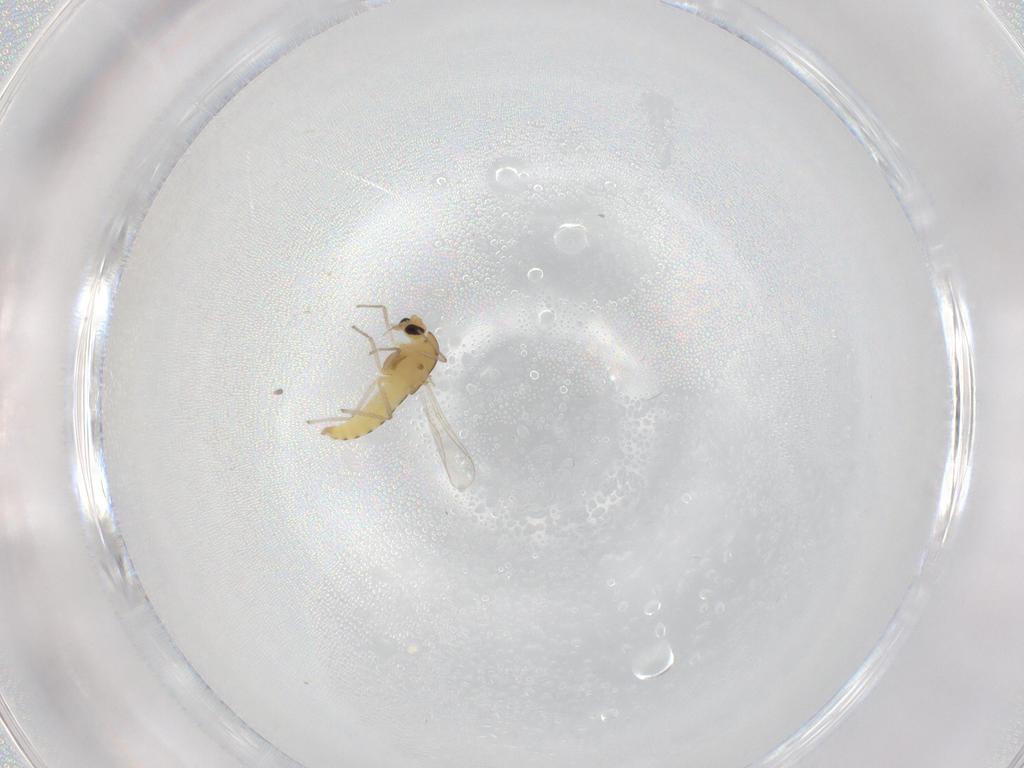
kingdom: Animalia
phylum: Arthropoda
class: Insecta
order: Diptera
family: Chironomidae
